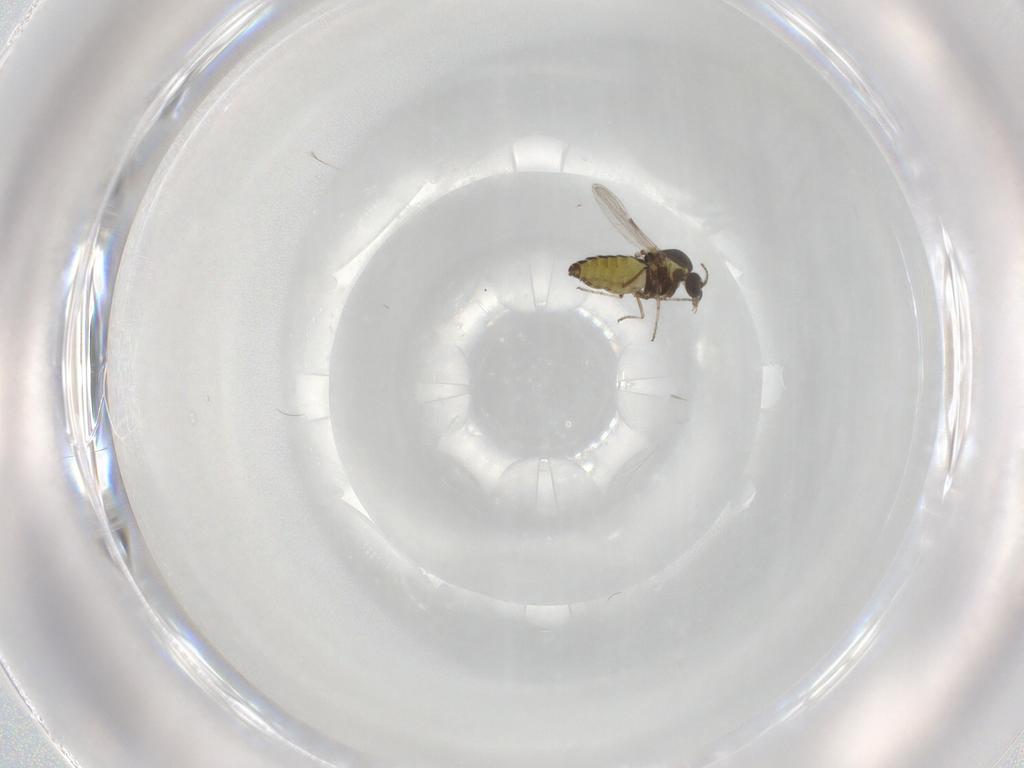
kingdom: Animalia
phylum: Arthropoda
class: Insecta
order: Diptera
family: Ceratopogonidae
